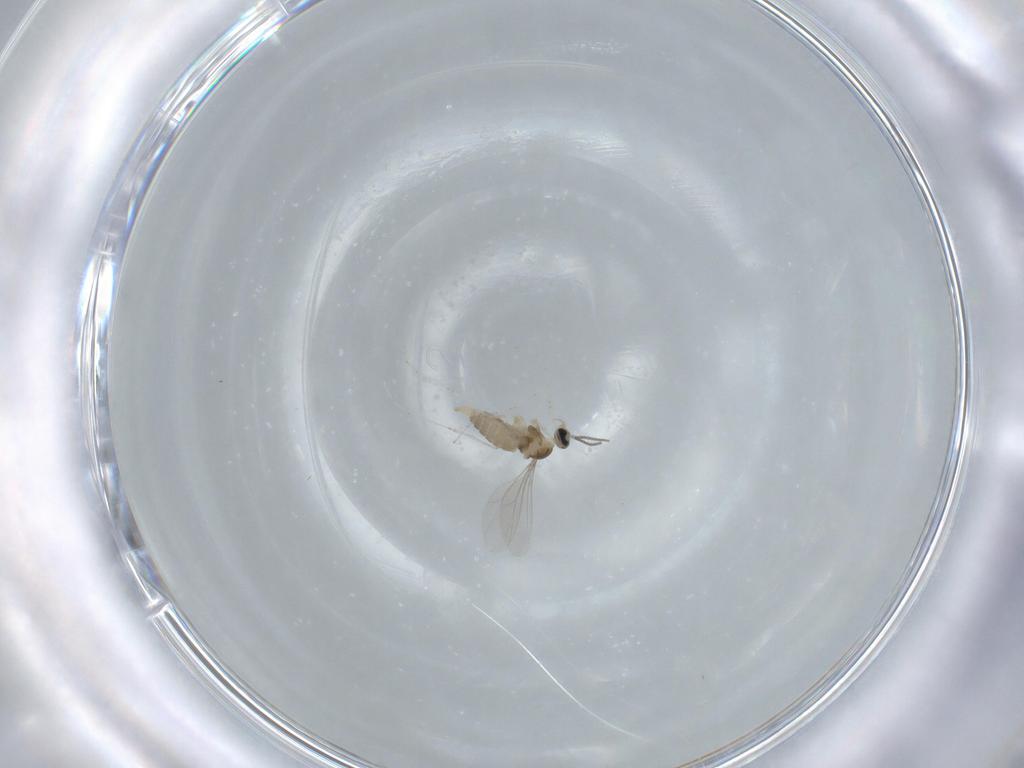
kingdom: Animalia
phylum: Arthropoda
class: Insecta
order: Diptera
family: Cecidomyiidae
